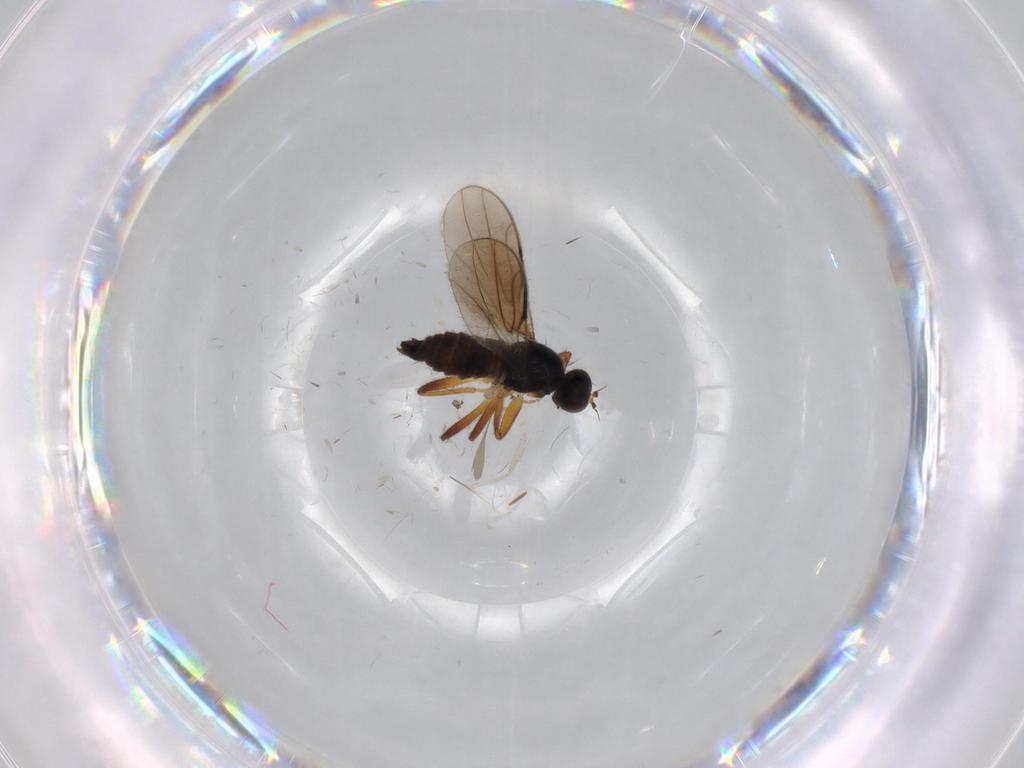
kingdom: Animalia
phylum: Arthropoda
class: Insecta
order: Diptera
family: Hybotidae
